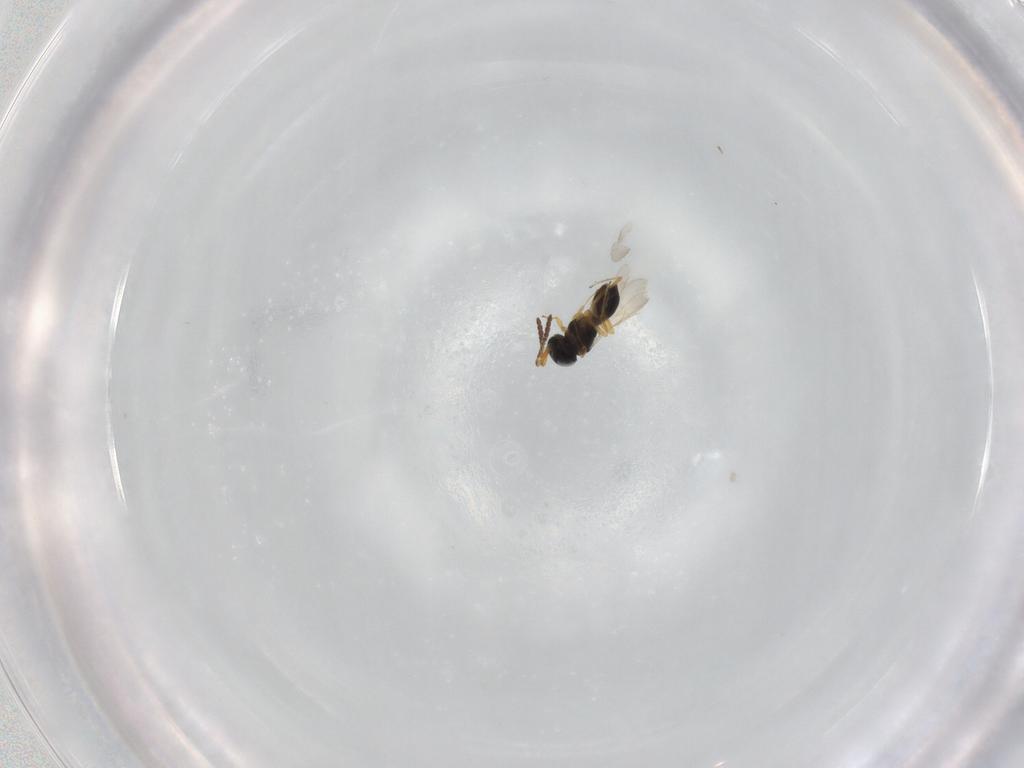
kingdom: Animalia
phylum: Arthropoda
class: Insecta
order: Hymenoptera
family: Scelionidae
